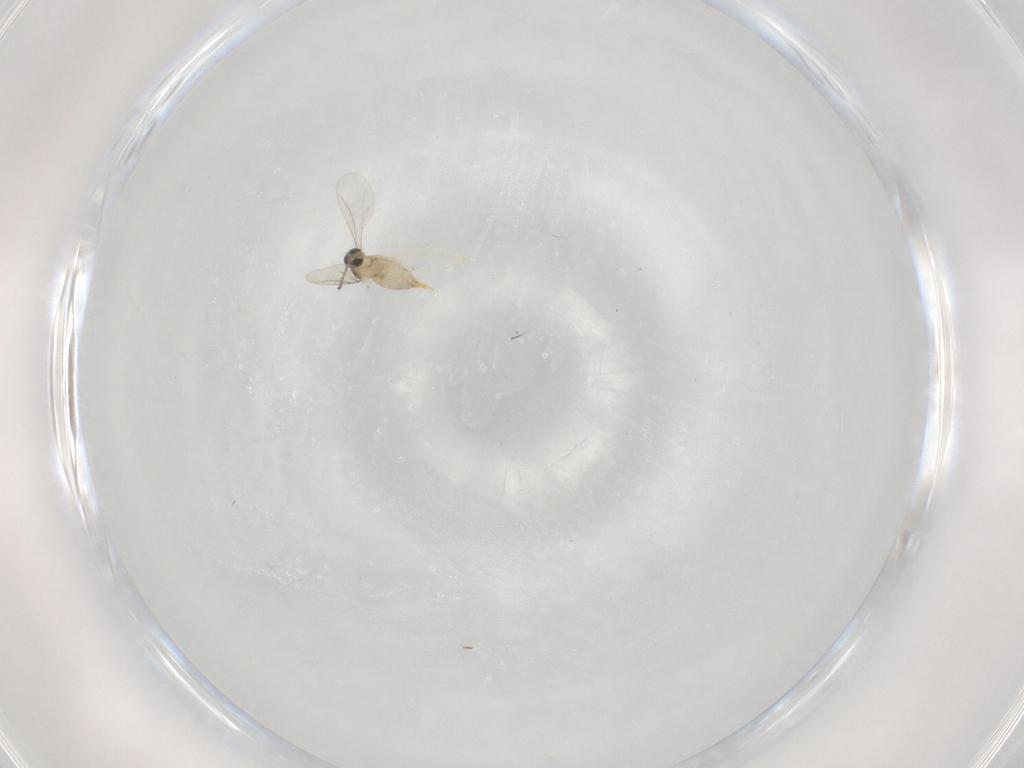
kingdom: Animalia
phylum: Arthropoda
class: Insecta
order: Diptera
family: Cecidomyiidae
